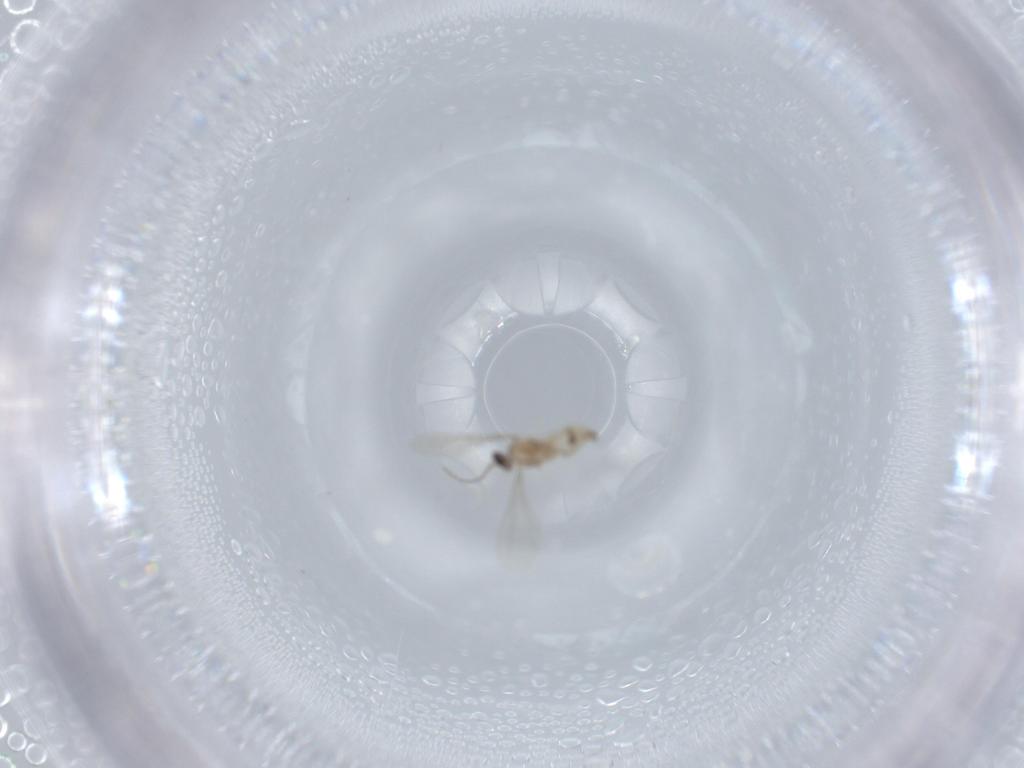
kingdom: Animalia
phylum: Arthropoda
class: Insecta
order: Diptera
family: Cecidomyiidae
